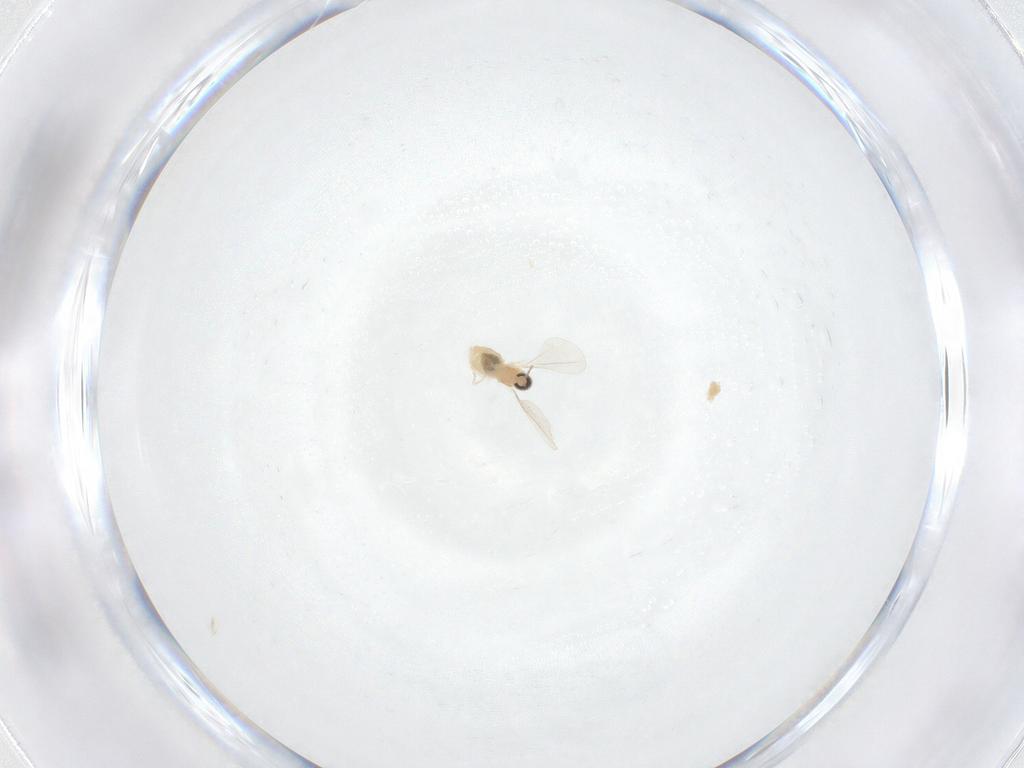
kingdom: Animalia
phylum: Arthropoda
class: Insecta
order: Diptera
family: Cecidomyiidae
